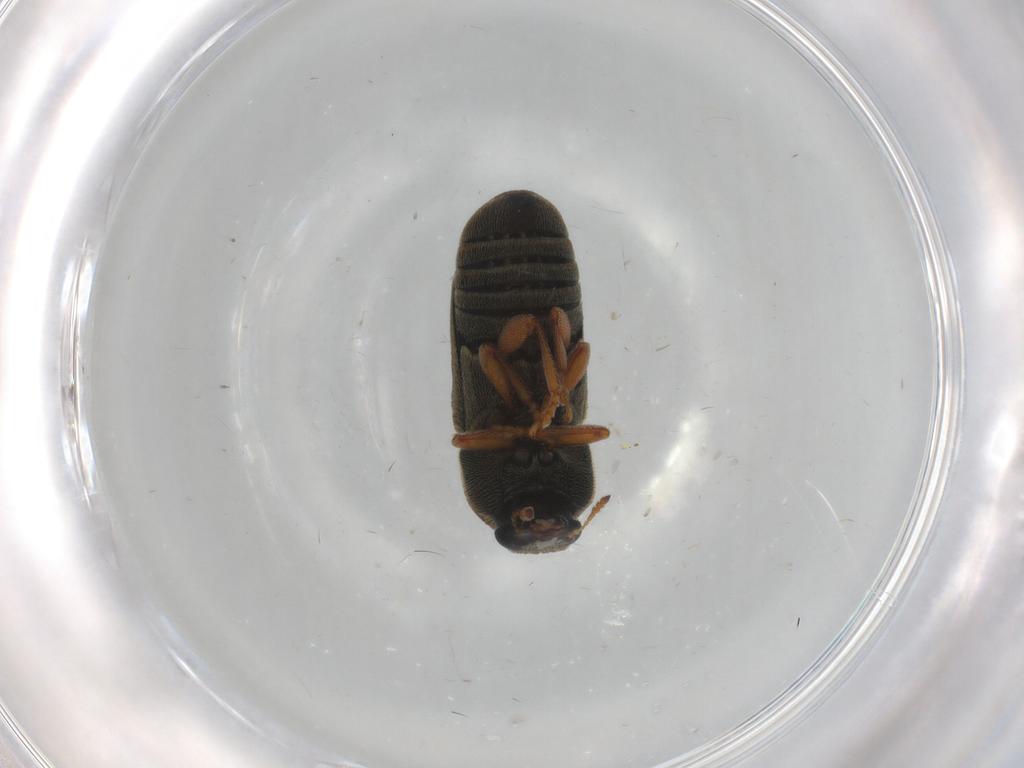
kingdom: Animalia
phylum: Arthropoda
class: Insecta
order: Coleoptera
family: Anthribidae
